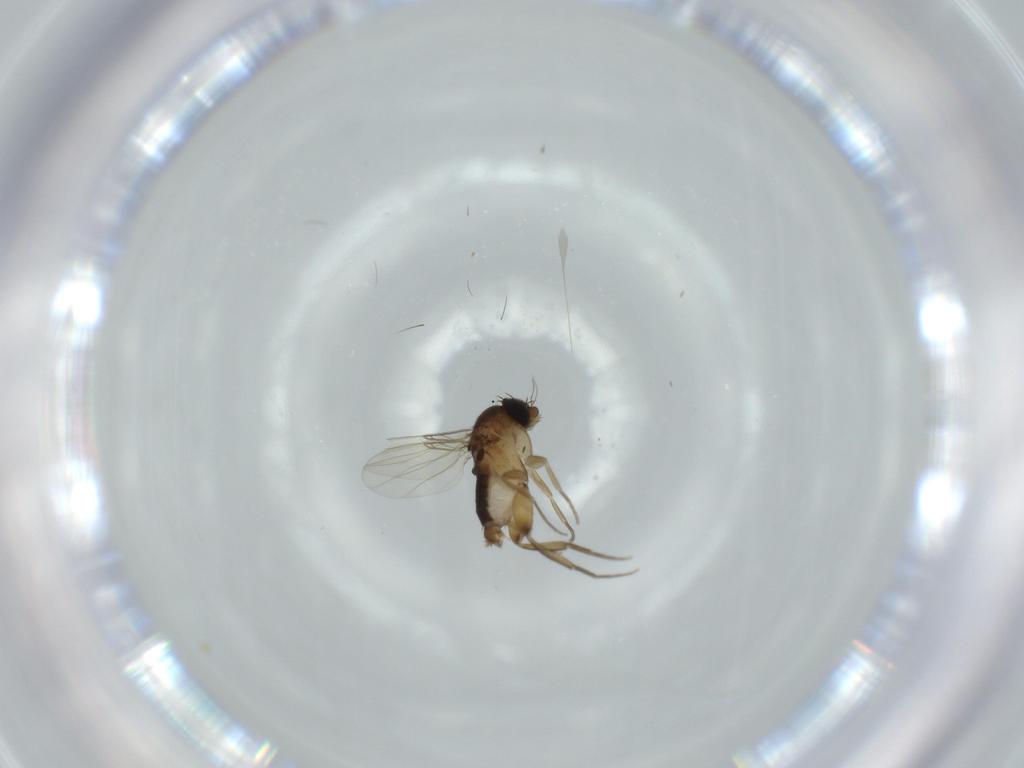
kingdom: Animalia
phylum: Arthropoda
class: Insecta
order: Diptera
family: Phoridae
